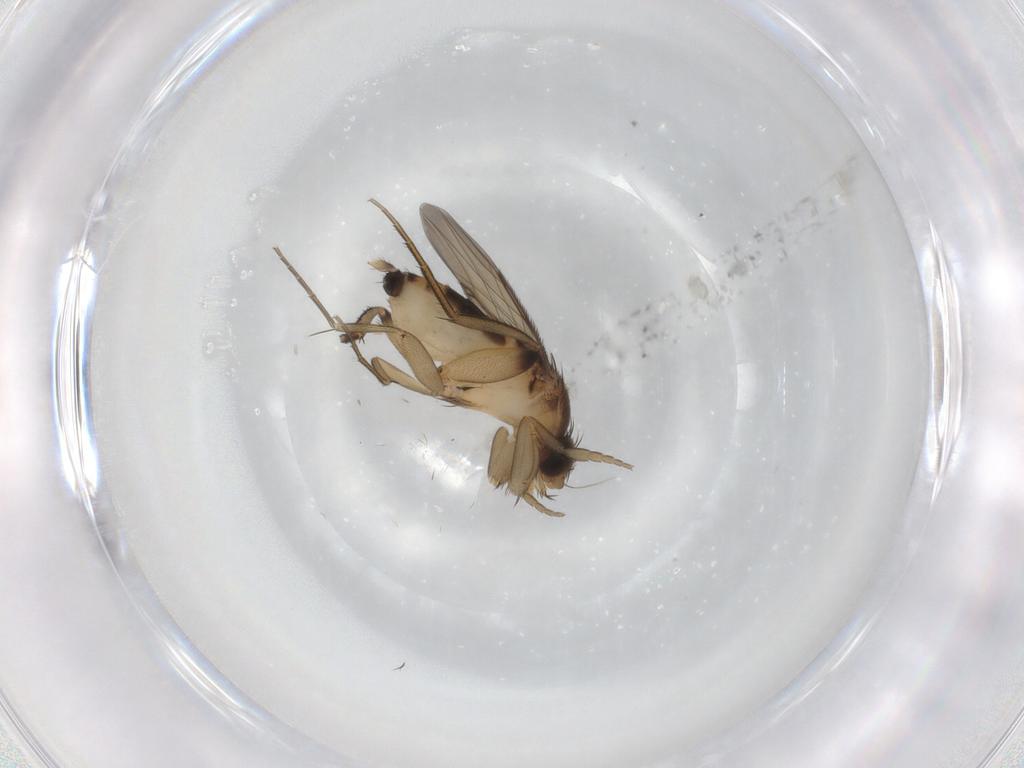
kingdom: Animalia
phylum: Arthropoda
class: Insecta
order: Diptera
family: Phoridae
